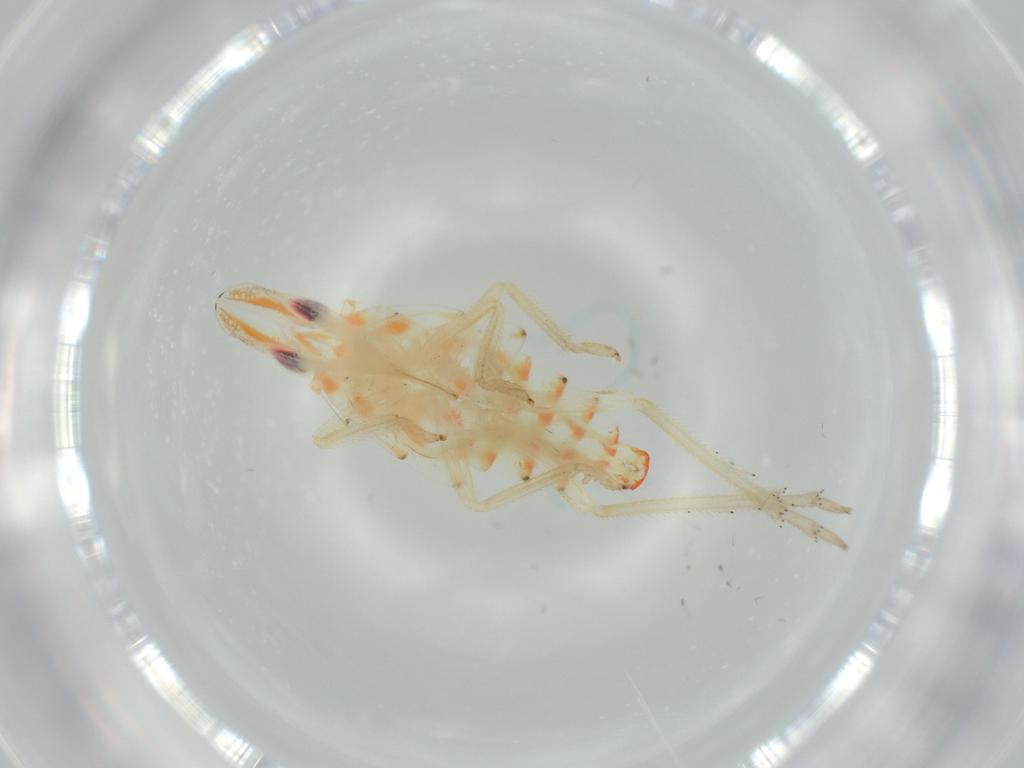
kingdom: Animalia
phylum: Arthropoda
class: Insecta
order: Hemiptera
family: Tropiduchidae
